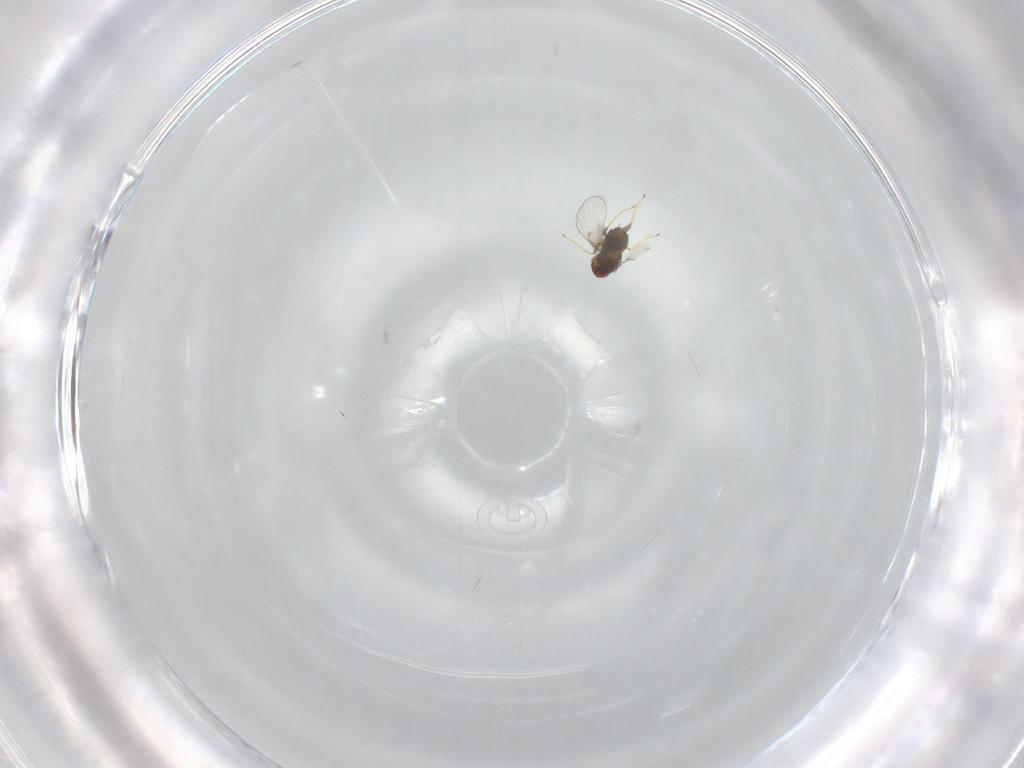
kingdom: Animalia
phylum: Arthropoda
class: Insecta
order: Hymenoptera
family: Trichogrammatidae
